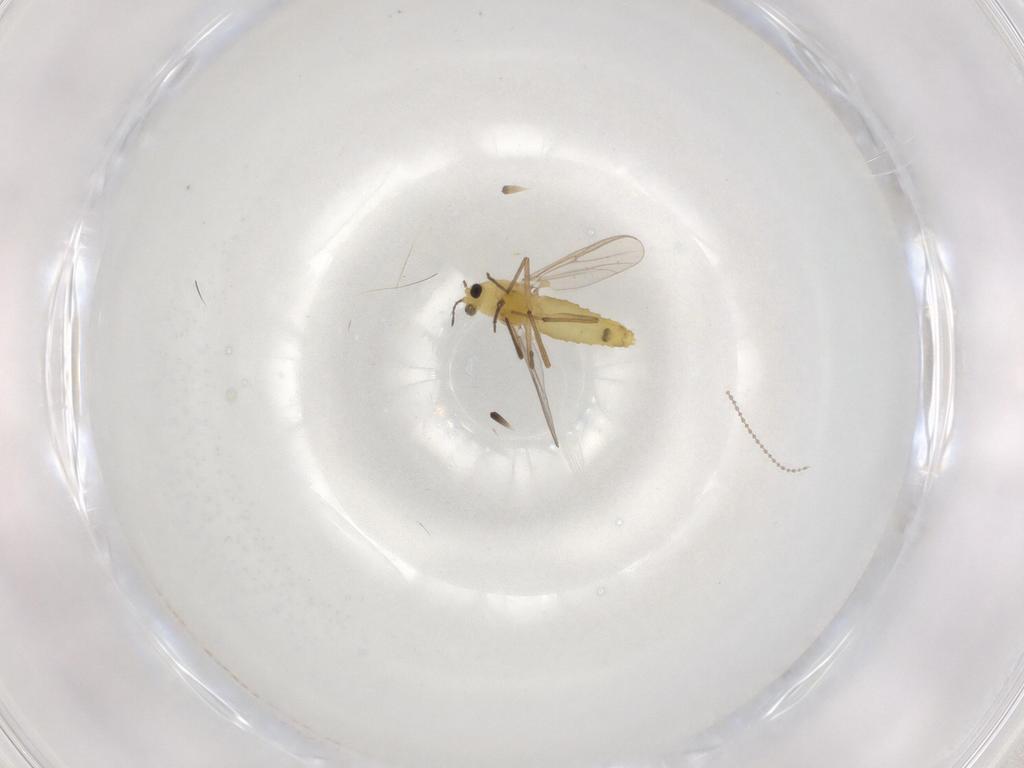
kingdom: Animalia
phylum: Arthropoda
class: Insecta
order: Diptera
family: Chironomidae
